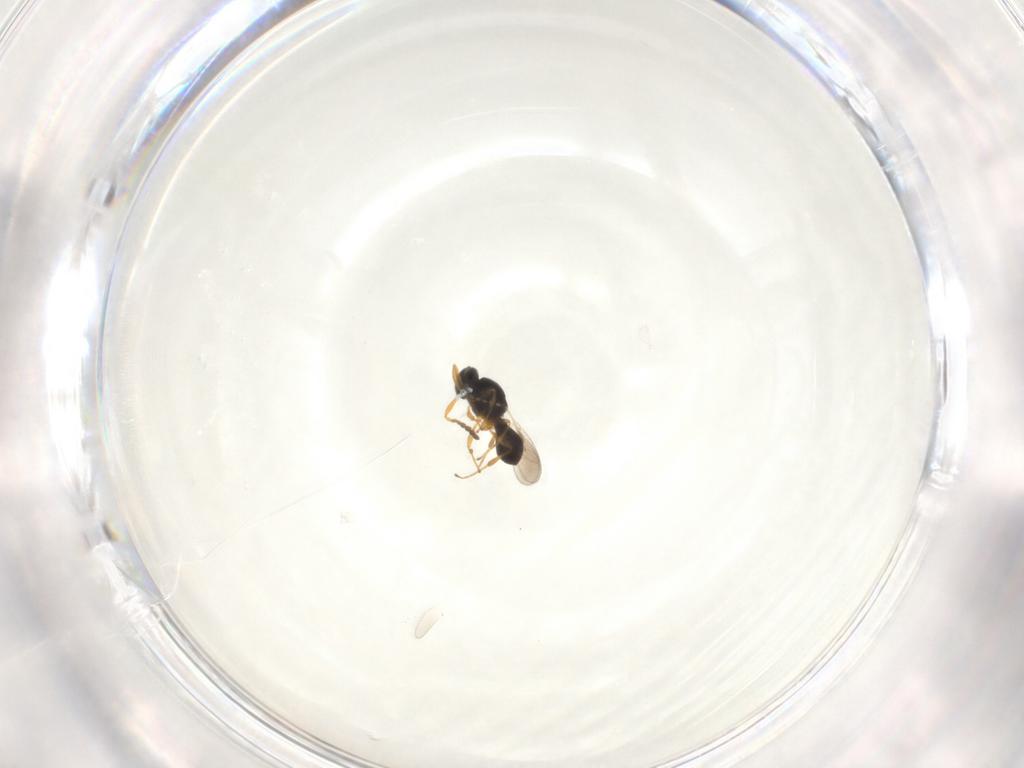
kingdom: Animalia
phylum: Arthropoda
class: Insecta
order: Hymenoptera
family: Platygastridae
